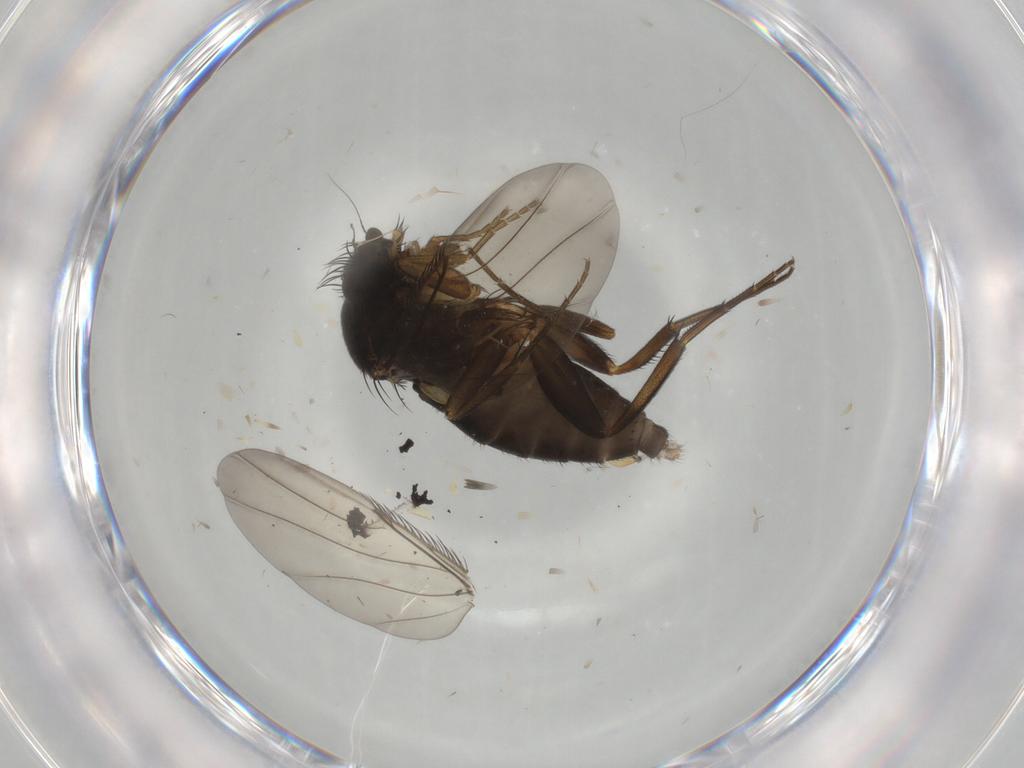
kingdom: Animalia
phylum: Arthropoda
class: Insecta
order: Diptera
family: Phoridae
